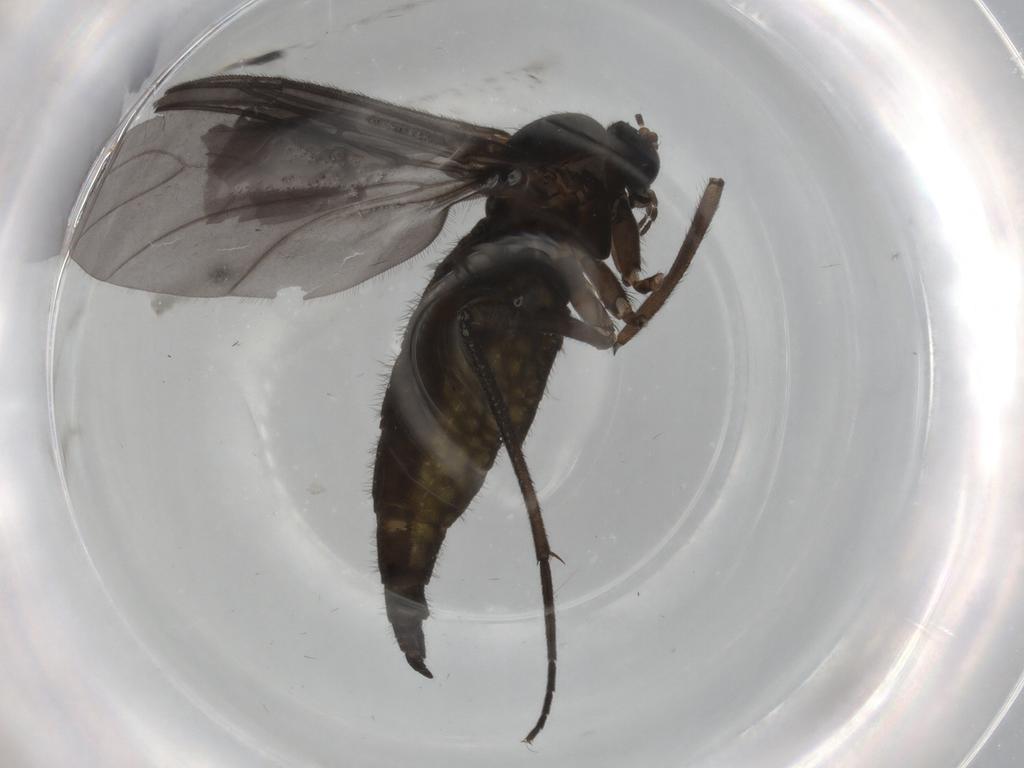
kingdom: Animalia
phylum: Arthropoda
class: Insecta
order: Diptera
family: Sciaridae
